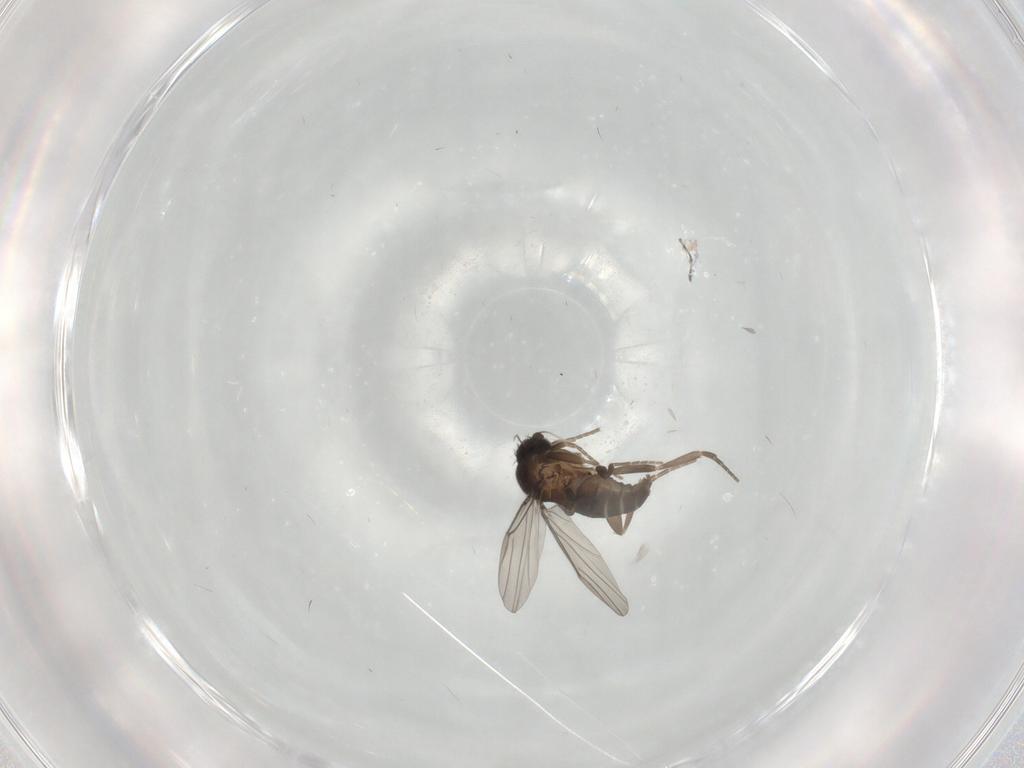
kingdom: Animalia
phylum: Arthropoda
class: Insecta
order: Diptera
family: Phoridae
